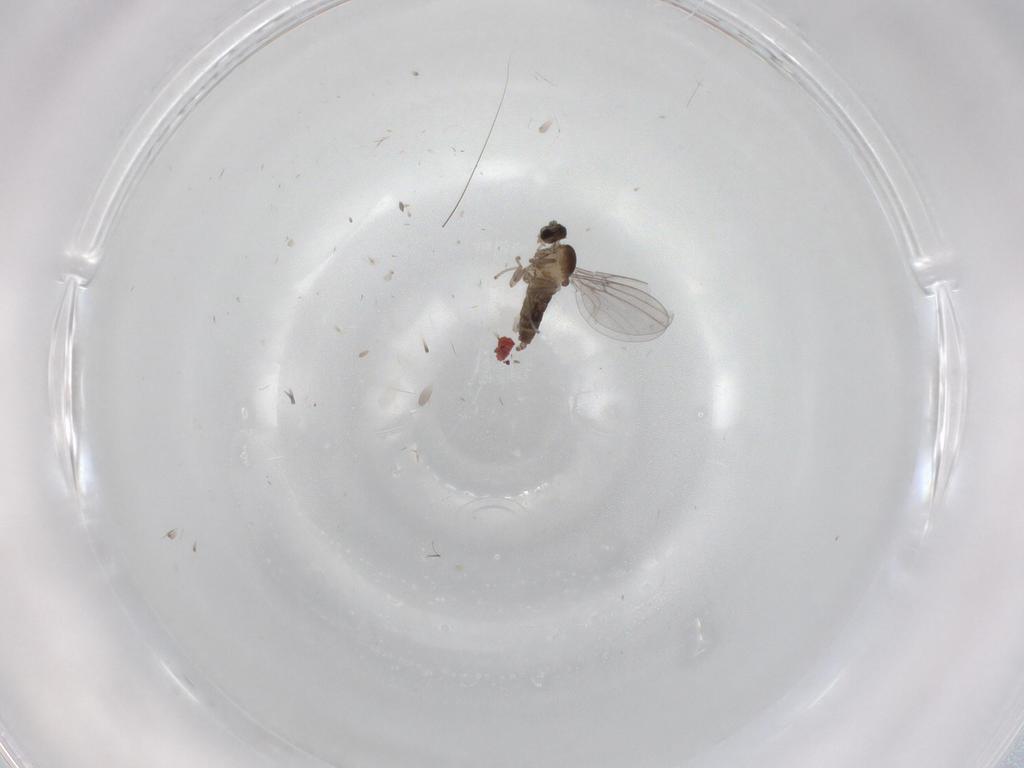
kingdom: Animalia
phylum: Arthropoda
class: Insecta
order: Diptera
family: Cecidomyiidae
